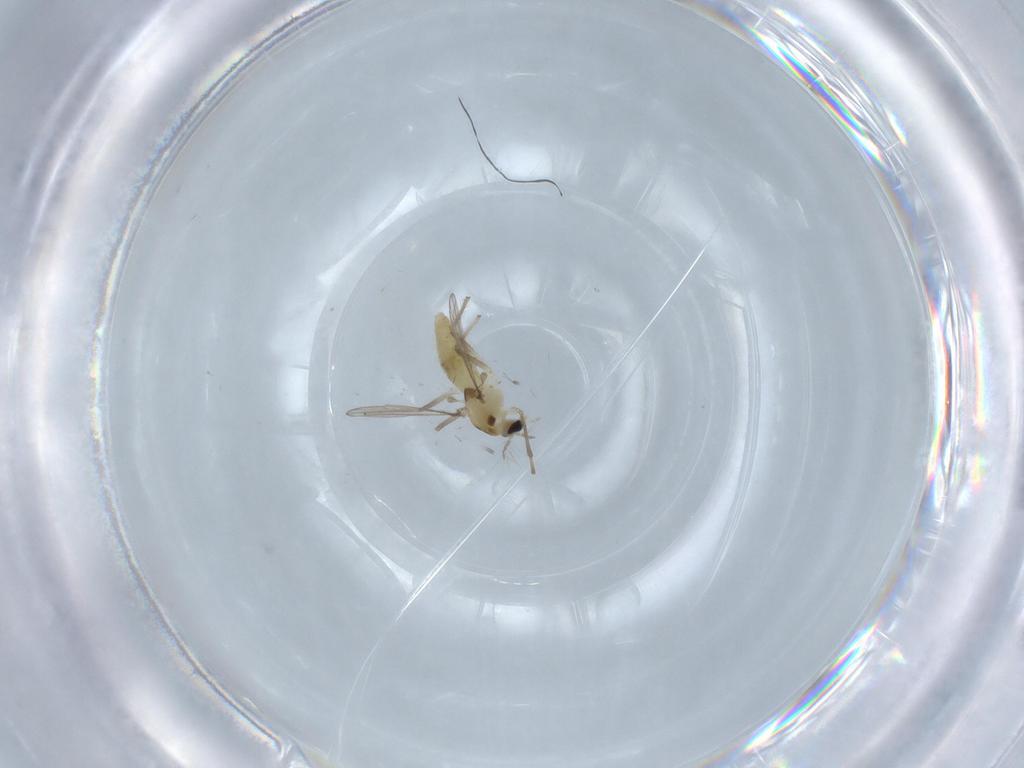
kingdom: Animalia
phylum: Arthropoda
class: Insecta
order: Diptera
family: Chironomidae
